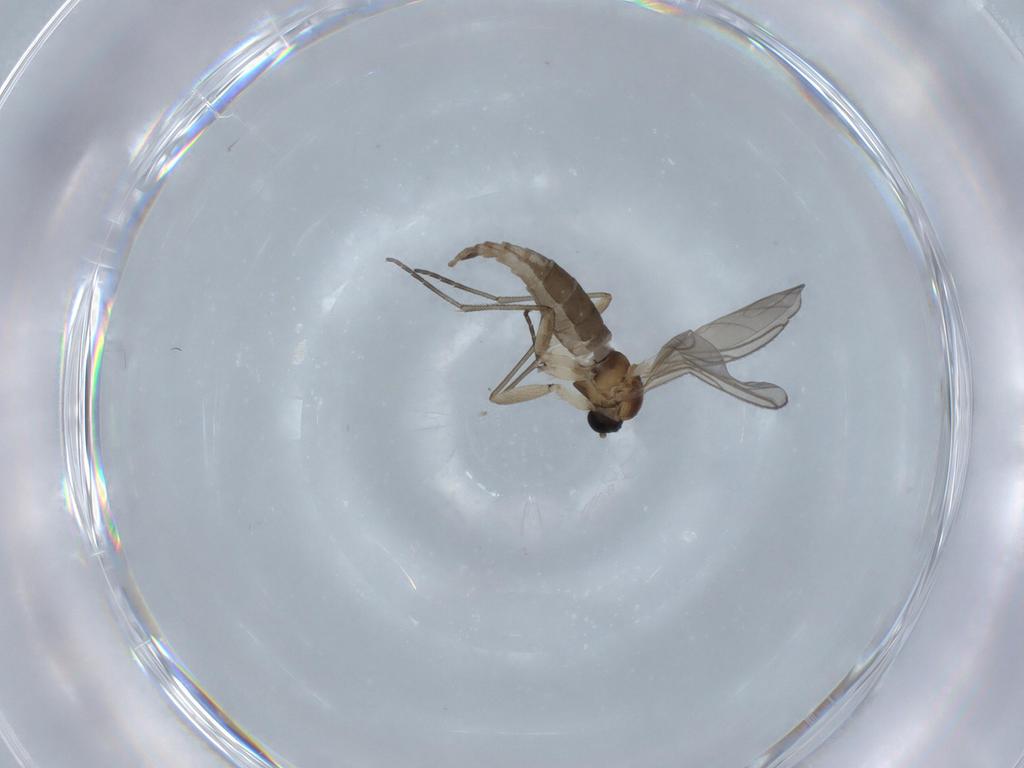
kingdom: Animalia
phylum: Arthropoda
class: Insecta
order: Diptera
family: Sciaridae
